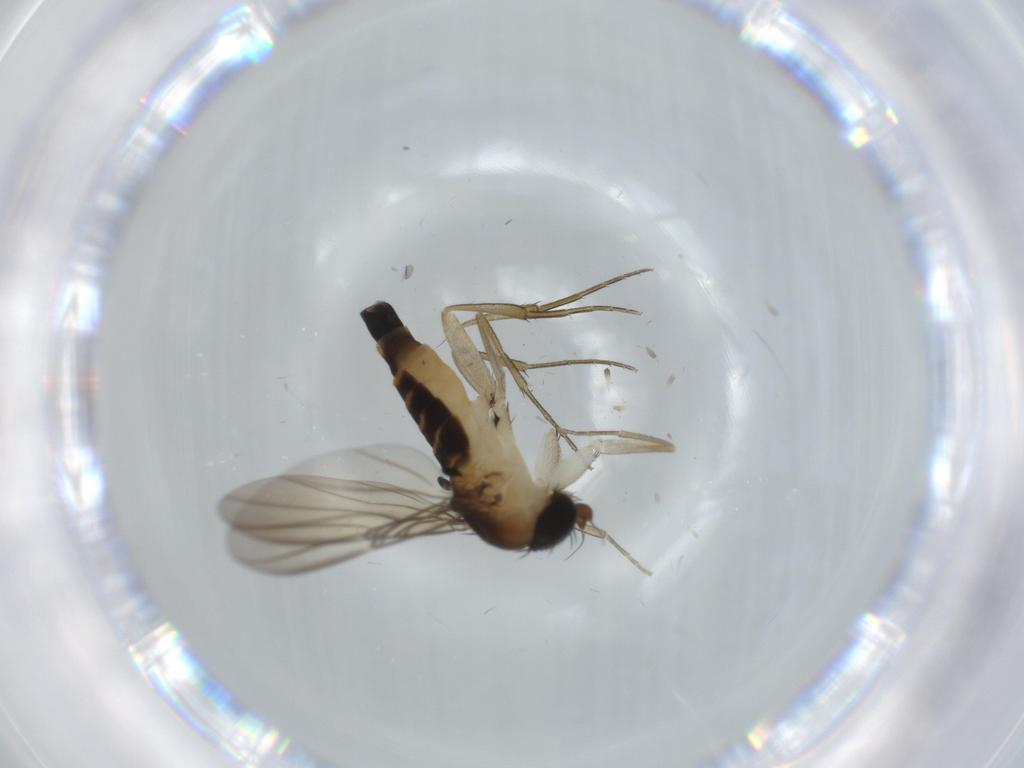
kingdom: Animalia
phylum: Arthropoda
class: Insecta
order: Diptera
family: Phoridae
